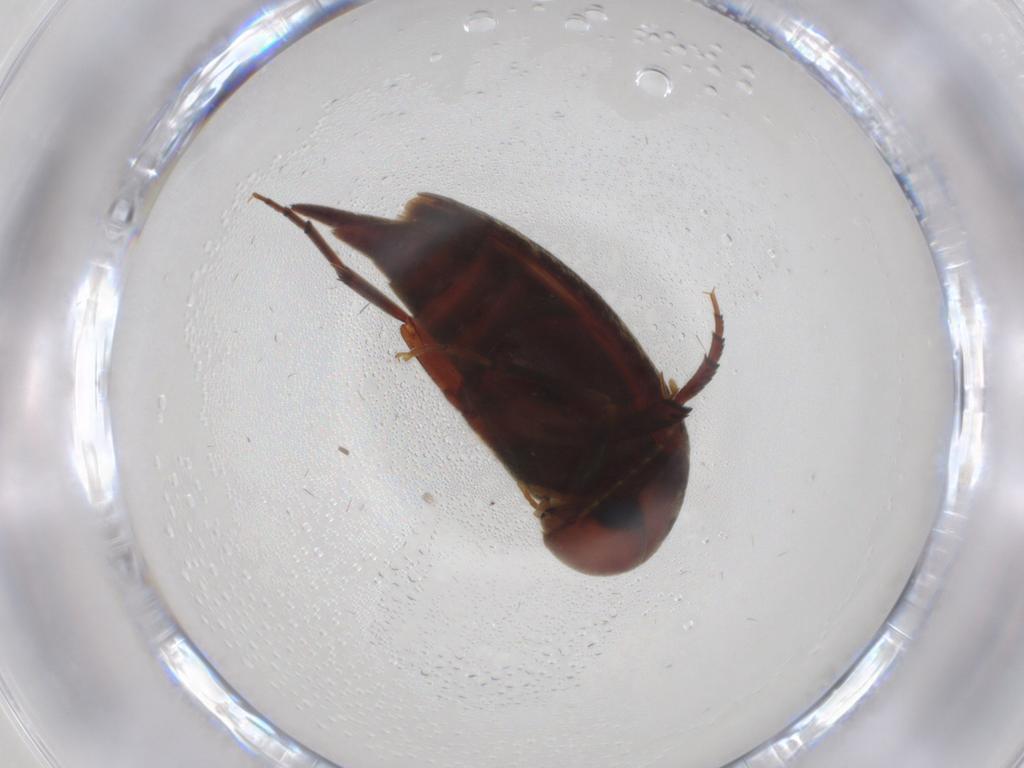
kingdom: Animalia
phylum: Arthropoda
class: Insecta
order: Coleoptera
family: Mordellidae
